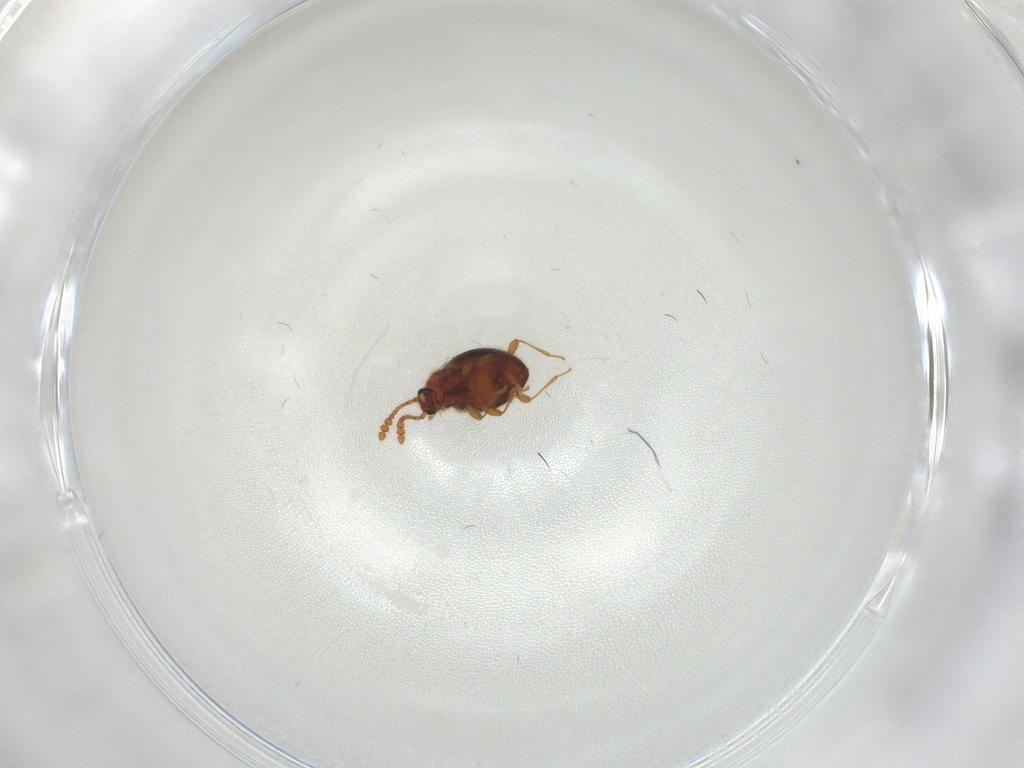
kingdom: Animalia
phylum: Arthropoda
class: Insecta
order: Coleoptera
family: Staphylinidae
